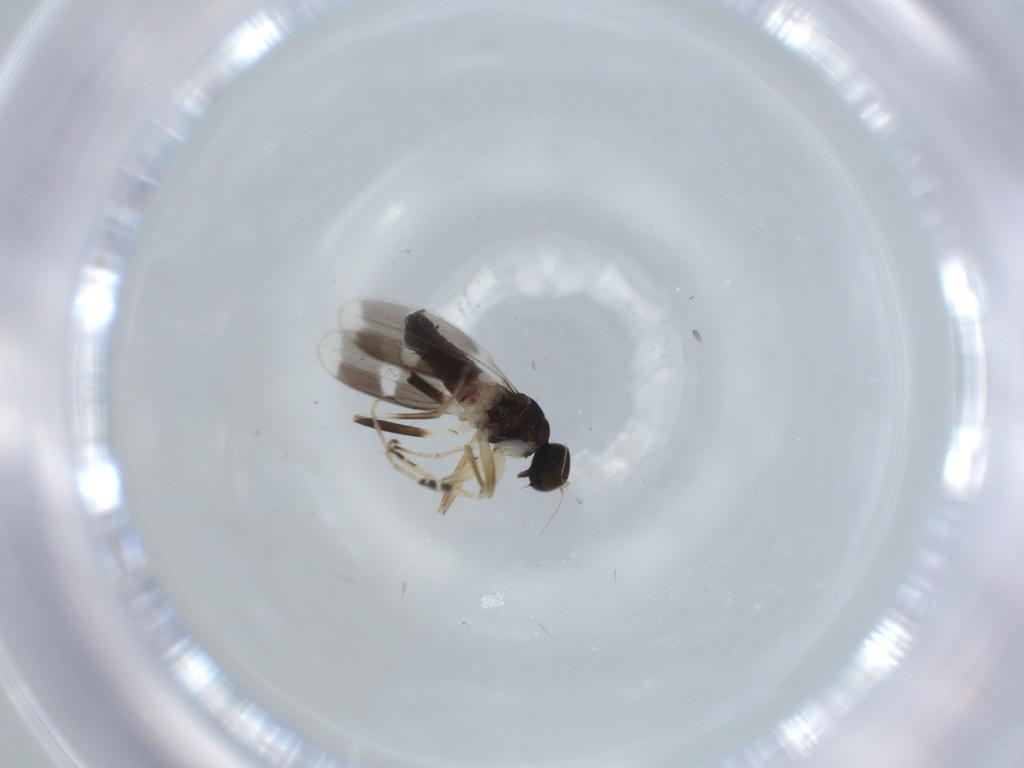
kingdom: Animalia
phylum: Arthropoda
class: Insecta
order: Diptera
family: Hybotidae
